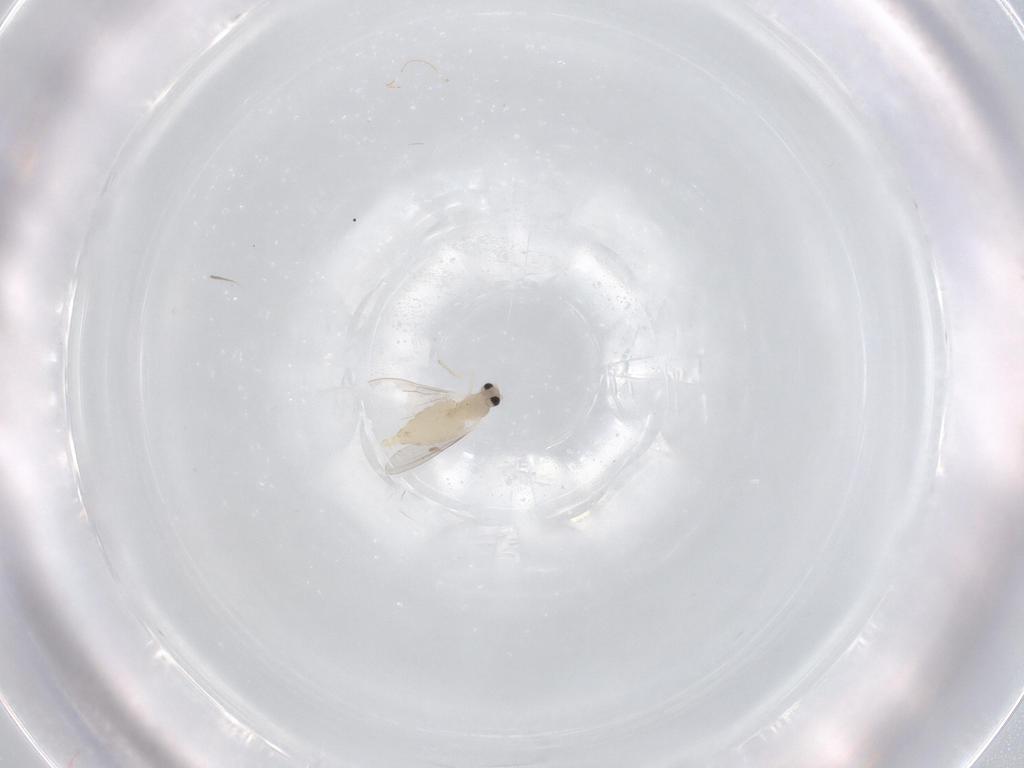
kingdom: Animalia
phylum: Arthropoda
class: Insecta
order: Diptera
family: Cecidomyiidae
